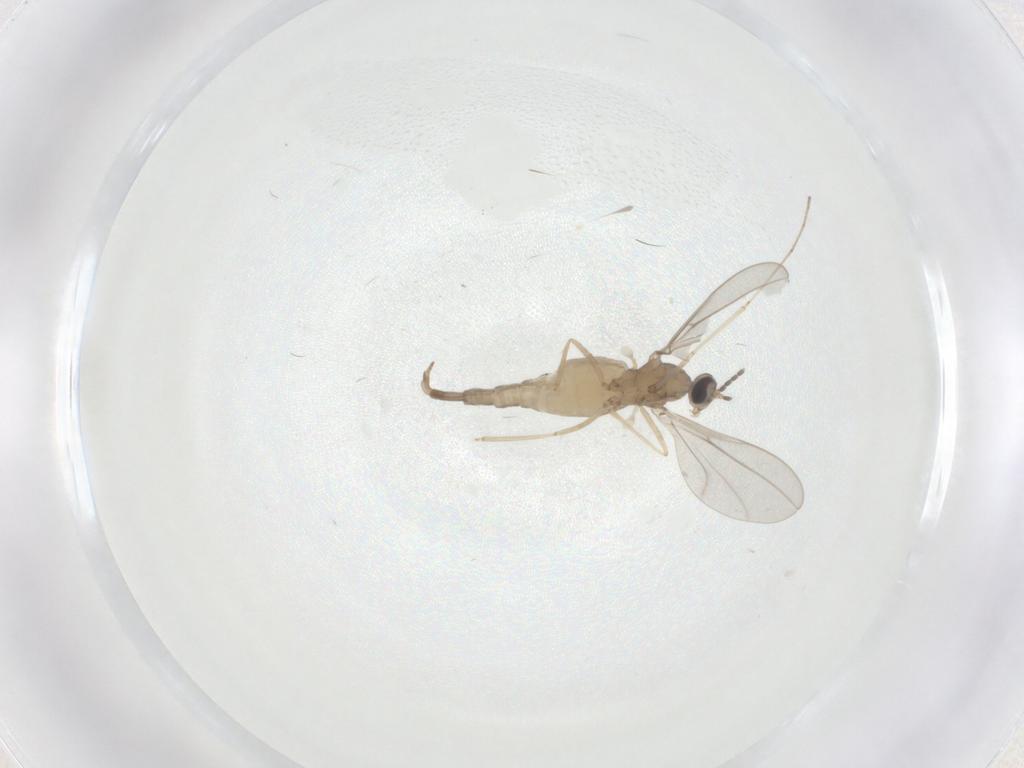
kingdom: Animalia
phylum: Arthropoda
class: Insecta
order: Diptera
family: Cecidomyiidae
